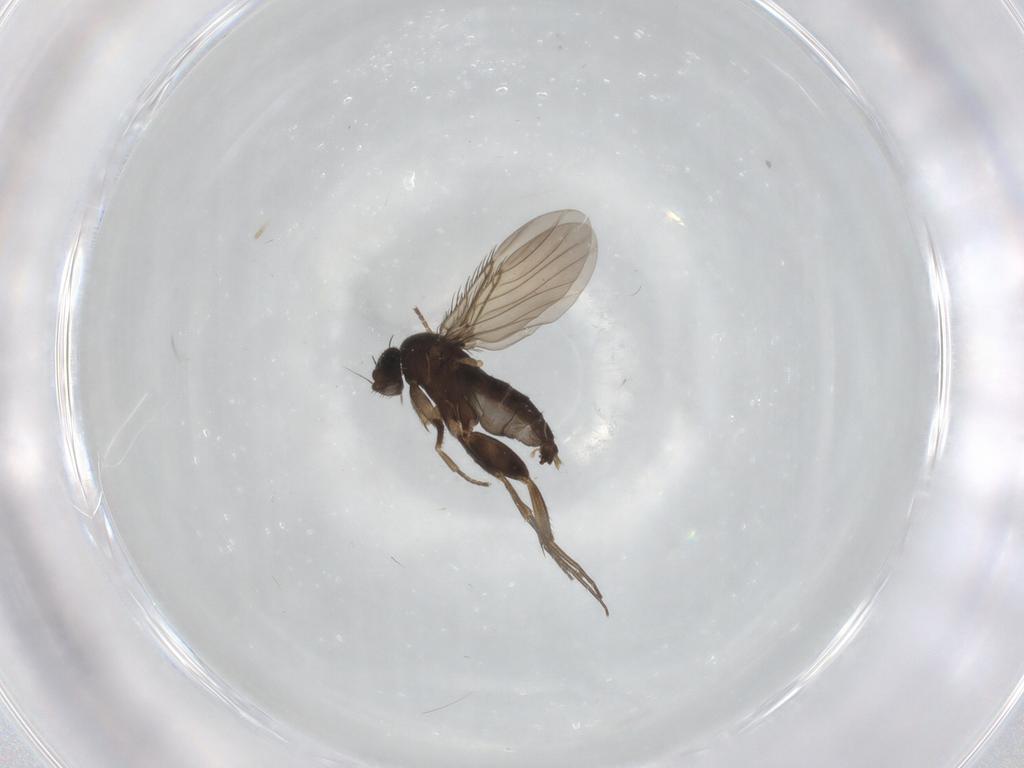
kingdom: Animalia
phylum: Arthropoda
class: Insecta
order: Diptera
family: Phoridae
